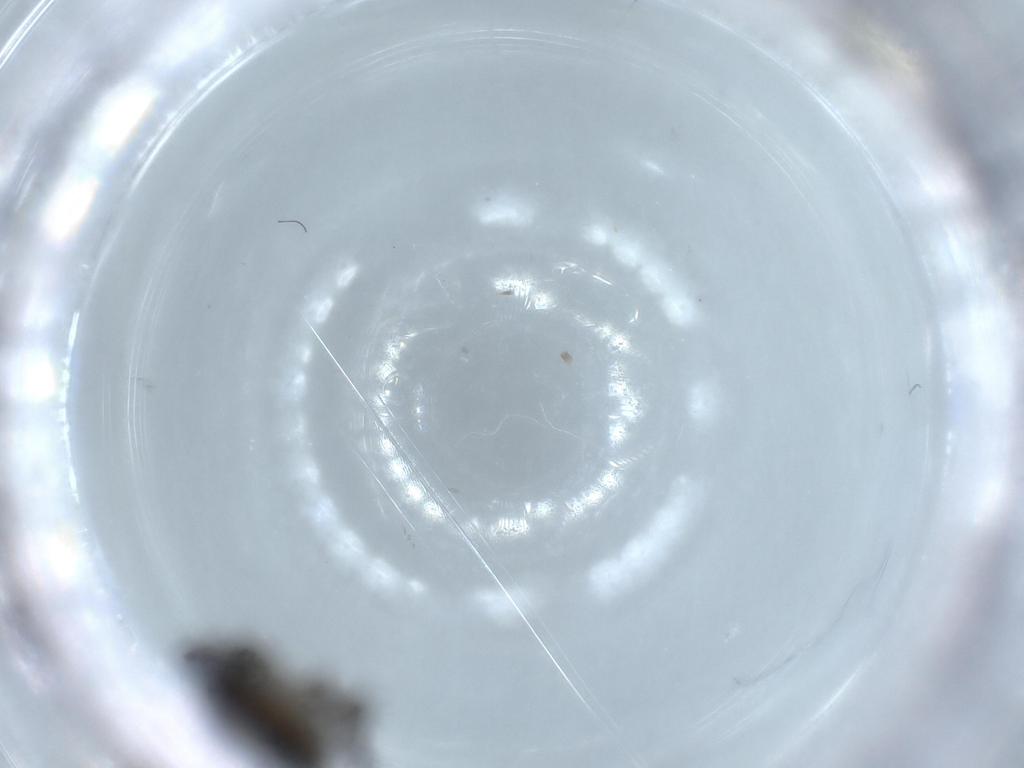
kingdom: Animalia
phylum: Arthropoda
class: Insecta
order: Diptera
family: Sciaridae
